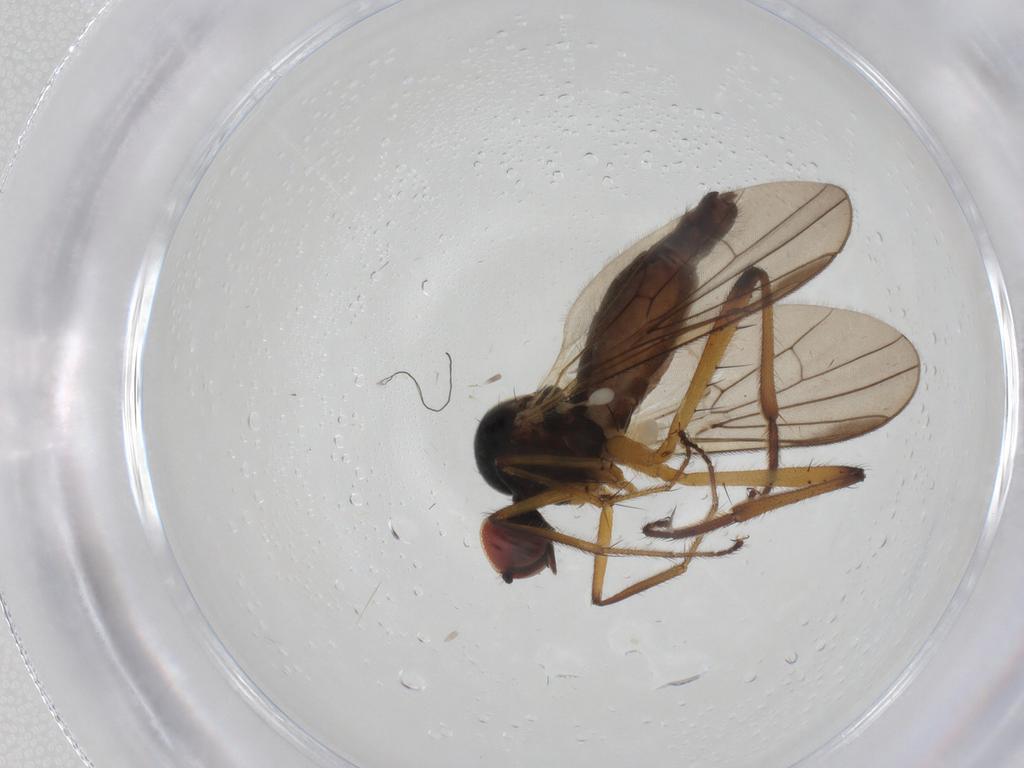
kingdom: Animalia
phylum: Arthropoda
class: Insecta
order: Diptera
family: Hybotidae
